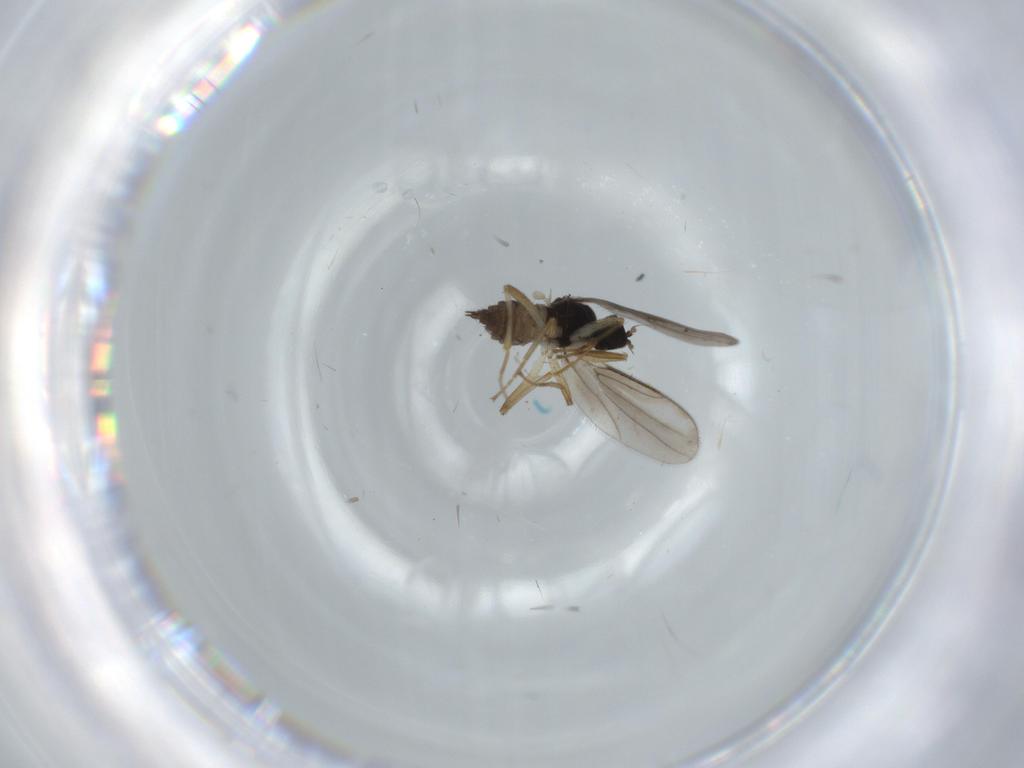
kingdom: Animalia
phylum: Arthropoda
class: Insecta
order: Diptera
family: Hybotidae
